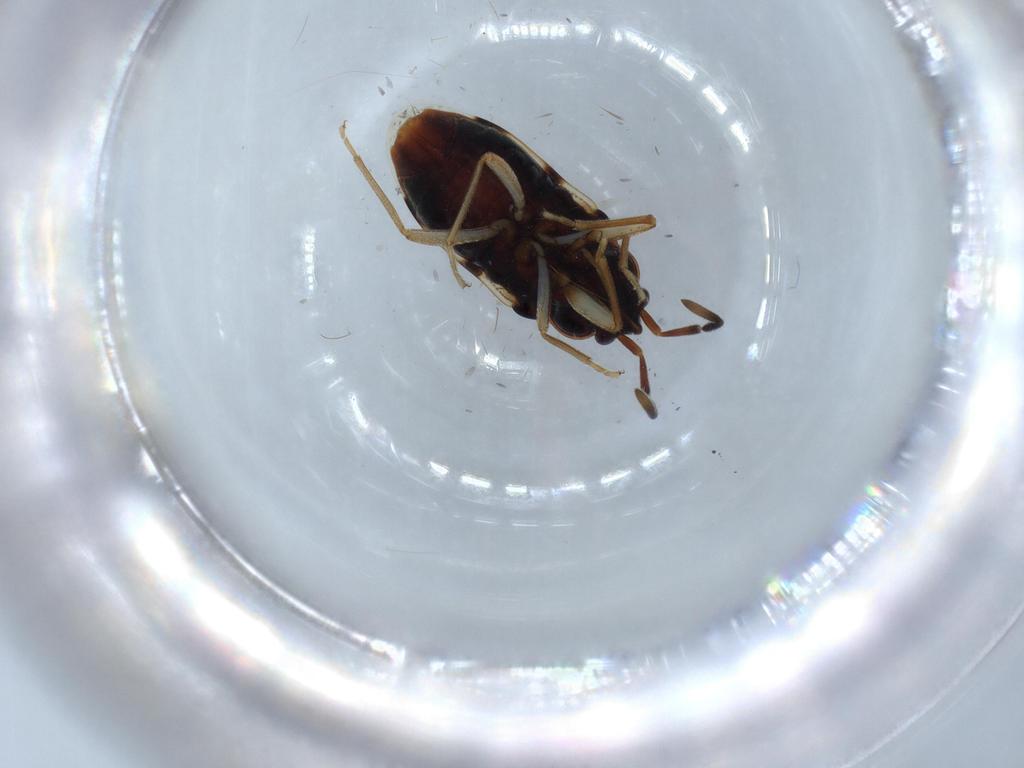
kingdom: Animalia
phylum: Arthropoda
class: Insecta
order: Hemiptera
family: Rhyparochromidae
